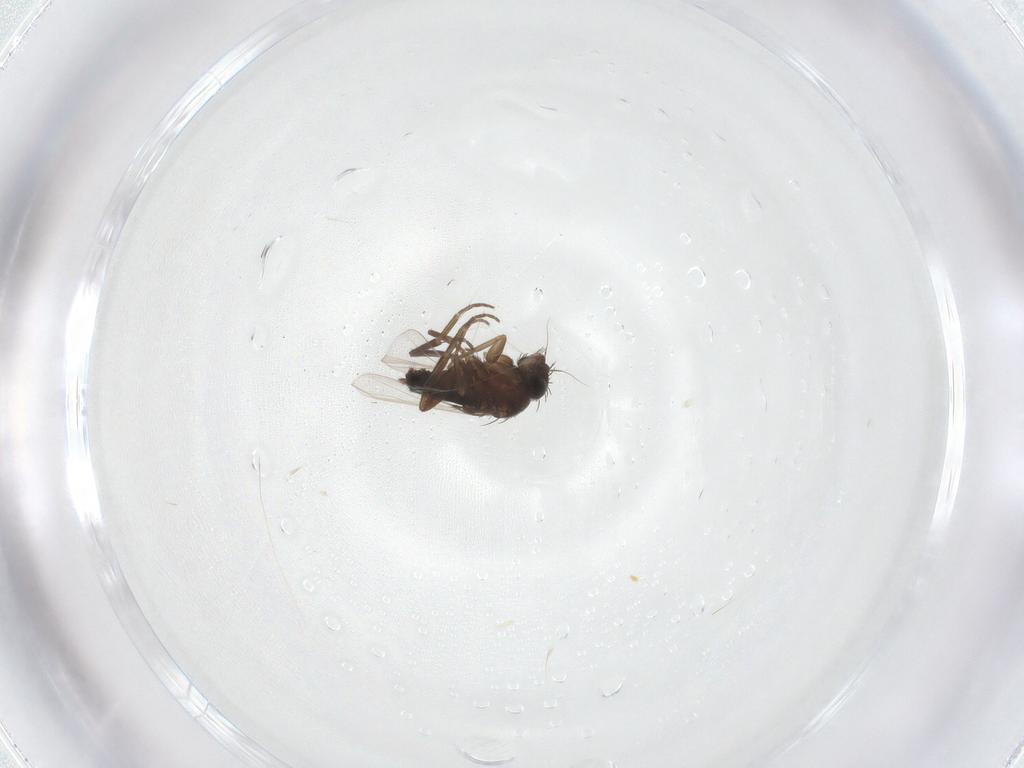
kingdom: Animalia
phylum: Arthropoda
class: Insecta
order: Diptera
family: Phoridae
